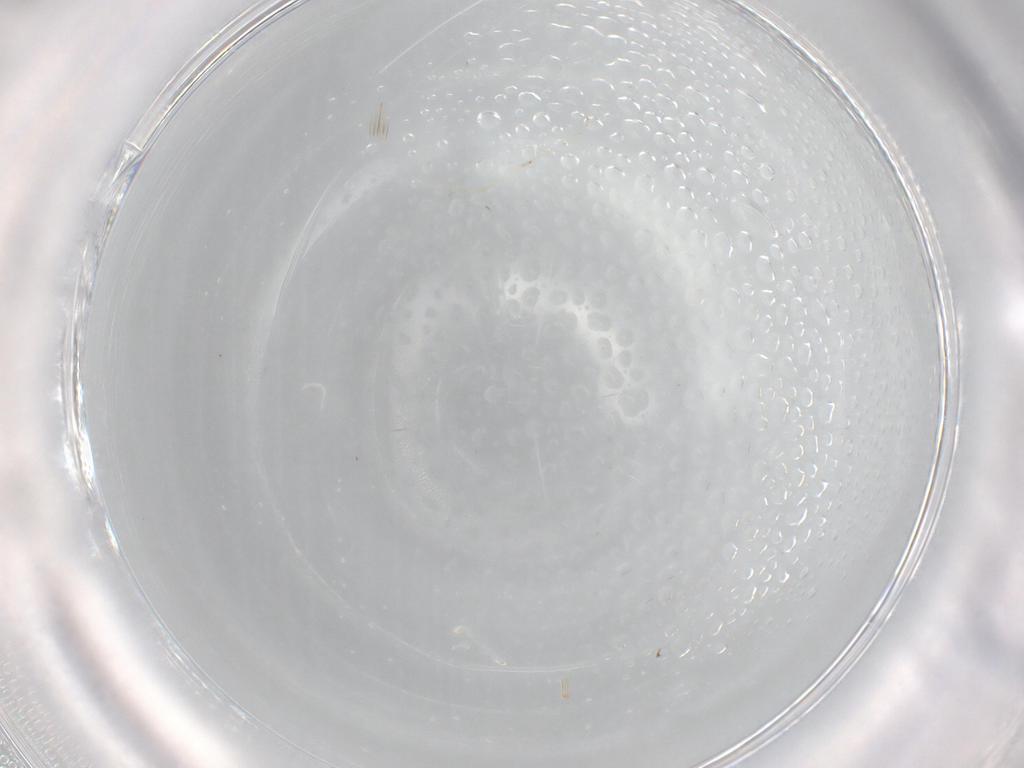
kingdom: Animalia
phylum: Arthropoda
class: Insecta
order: Diptera
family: Cecidomyiidae
